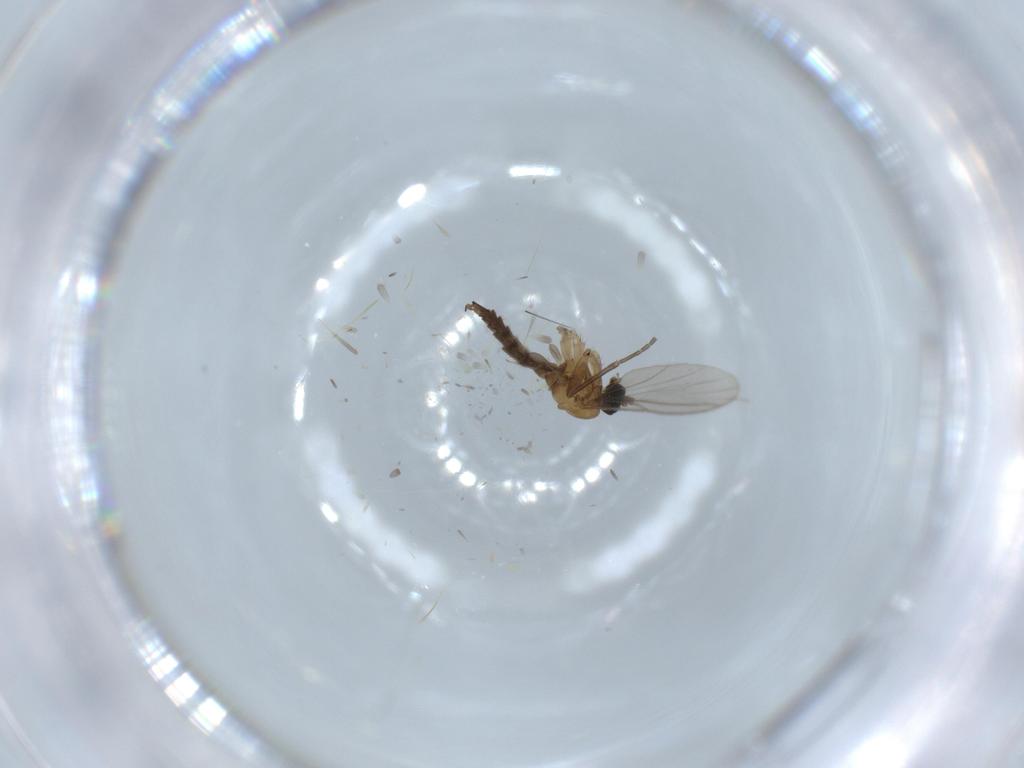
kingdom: Animalia
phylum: Arthropoda
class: Insecta
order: Diptera
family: Sciaridae
